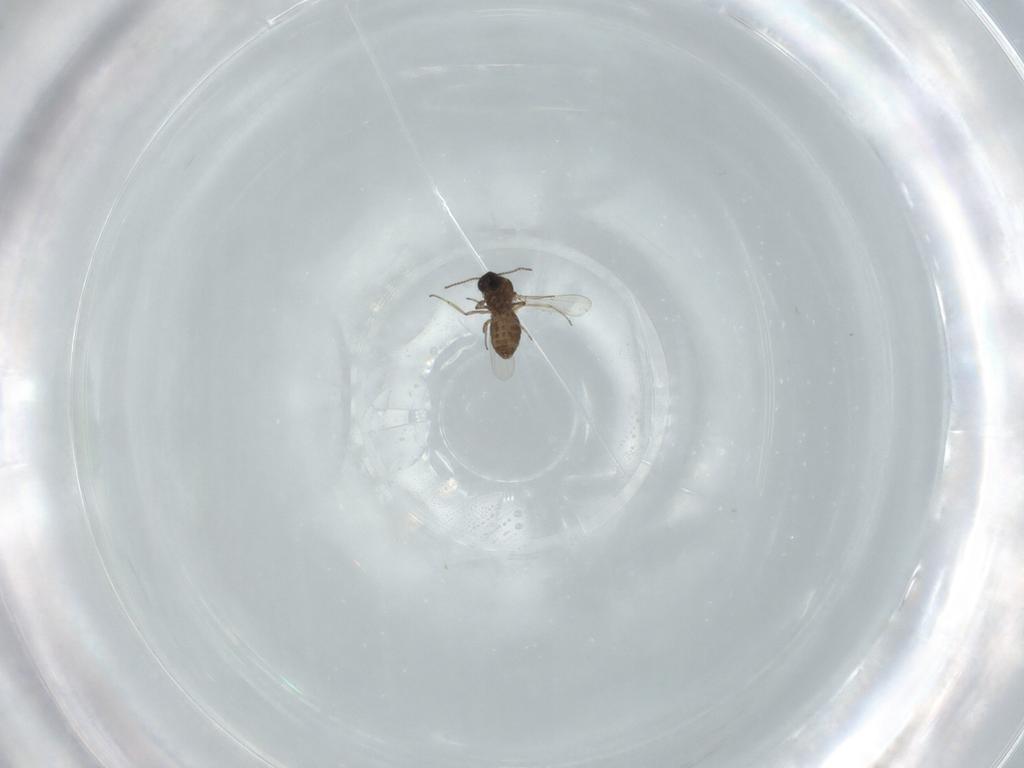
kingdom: Animalia
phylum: Arthropoda
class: Insecta
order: Diptera
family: Ceratopogonidae
